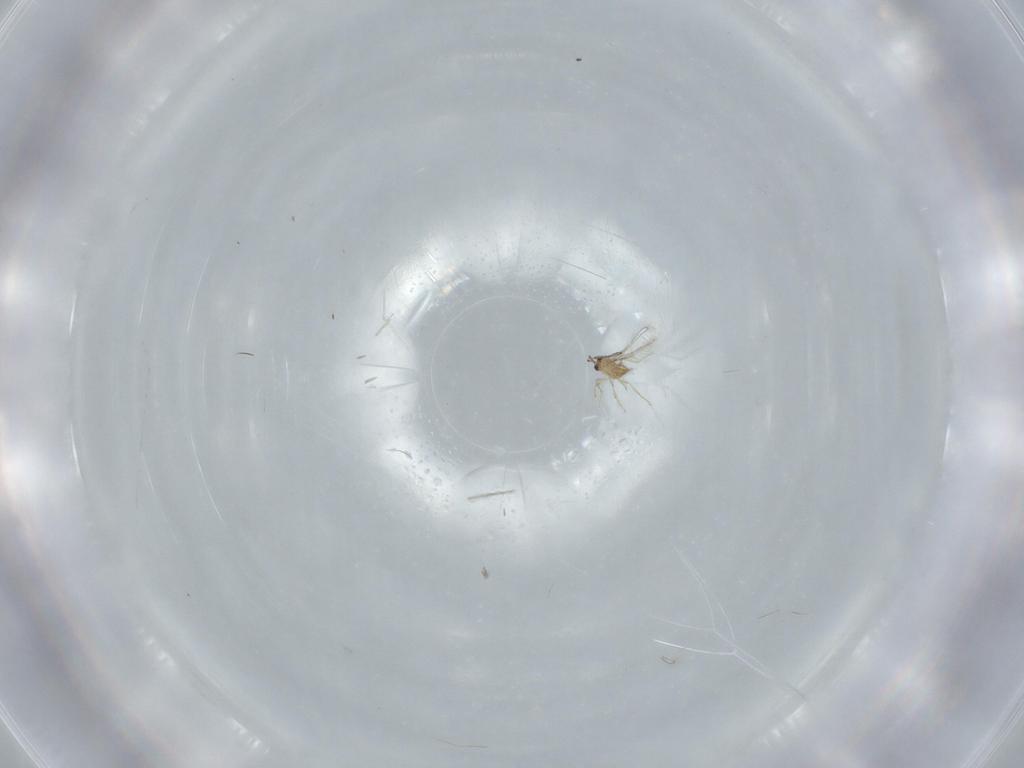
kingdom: Animalia
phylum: Arthropoda
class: Insecta
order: Hymenoptera
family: Mymaridae
